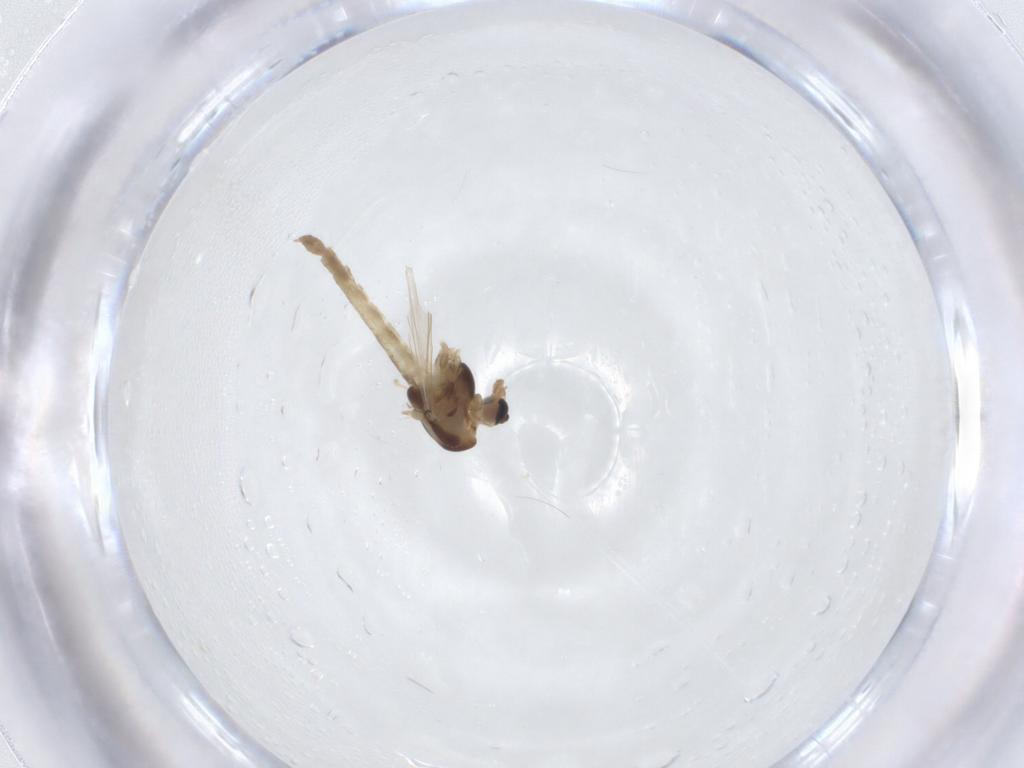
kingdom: Animalia
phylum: Arthropoda
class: Insecta
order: Diptera
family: Chironomidae
